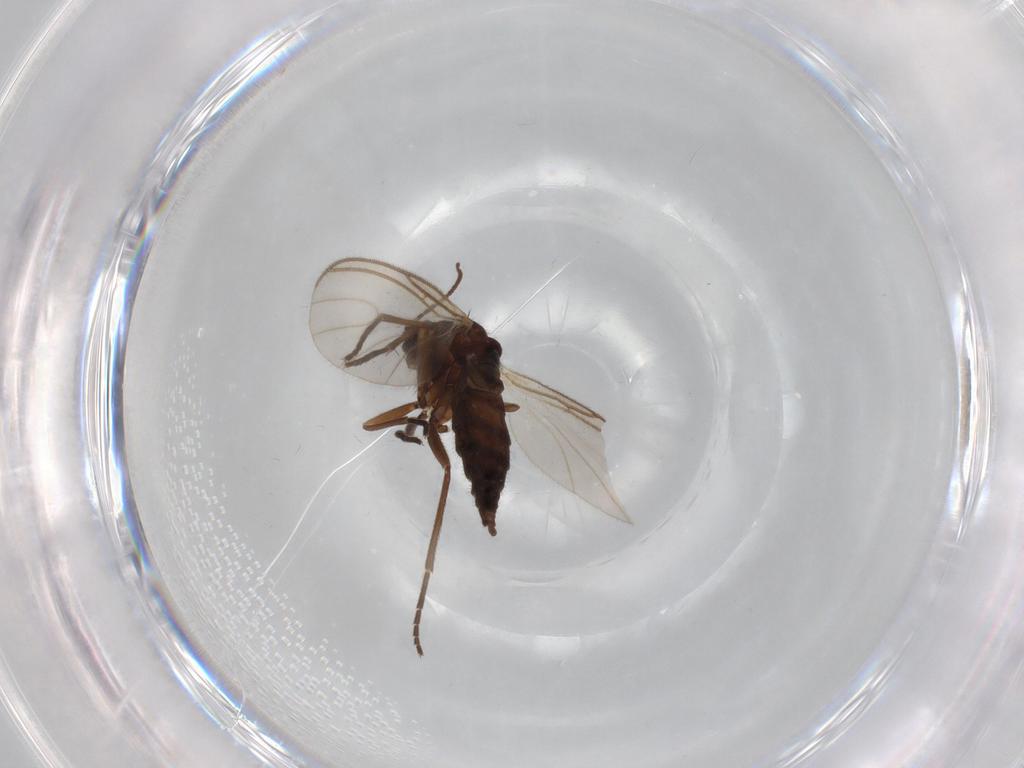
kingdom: Animalia
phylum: Arthropoda
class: Insecta
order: Diptera
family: Sciaridae
